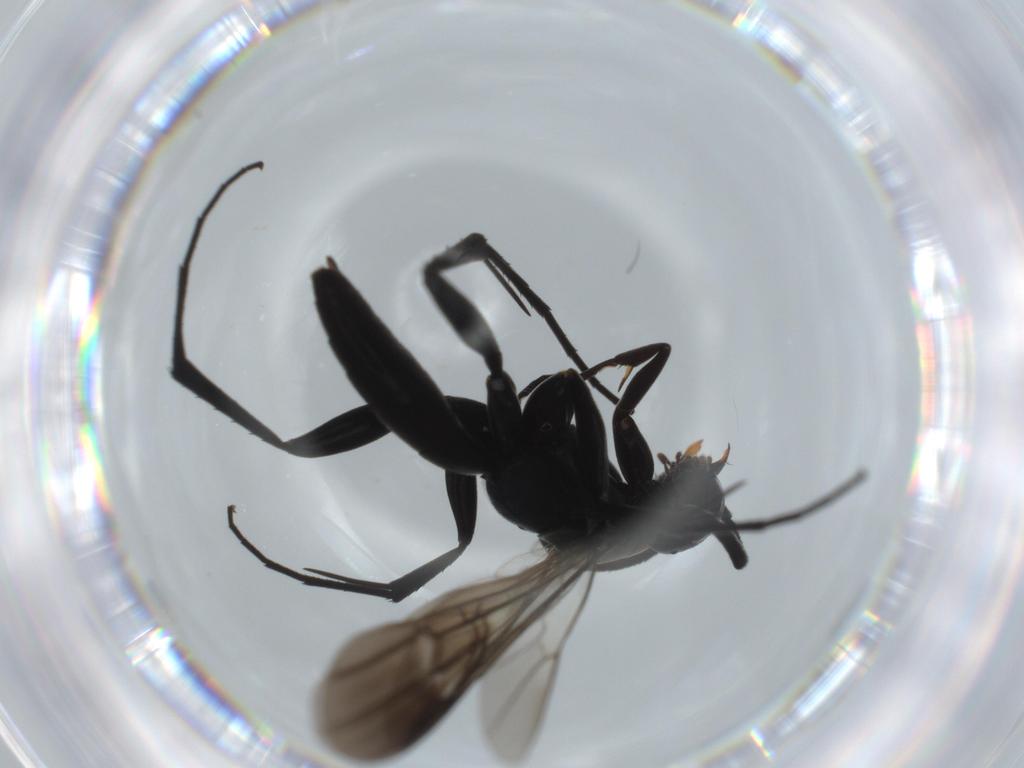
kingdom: Animalia
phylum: Arthropoda
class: Insecta
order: Hymenoptera
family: Pompilidae
